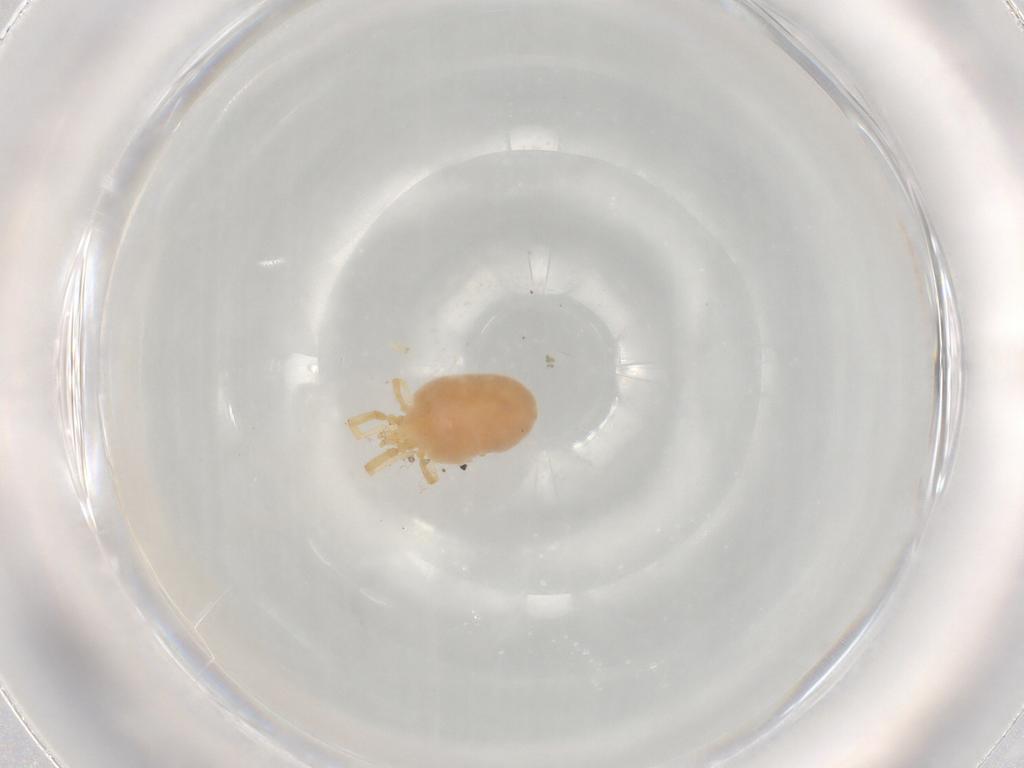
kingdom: Animalia
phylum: Arthropoda
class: Arachnida
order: Trombidiformes
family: Erythraeidae
